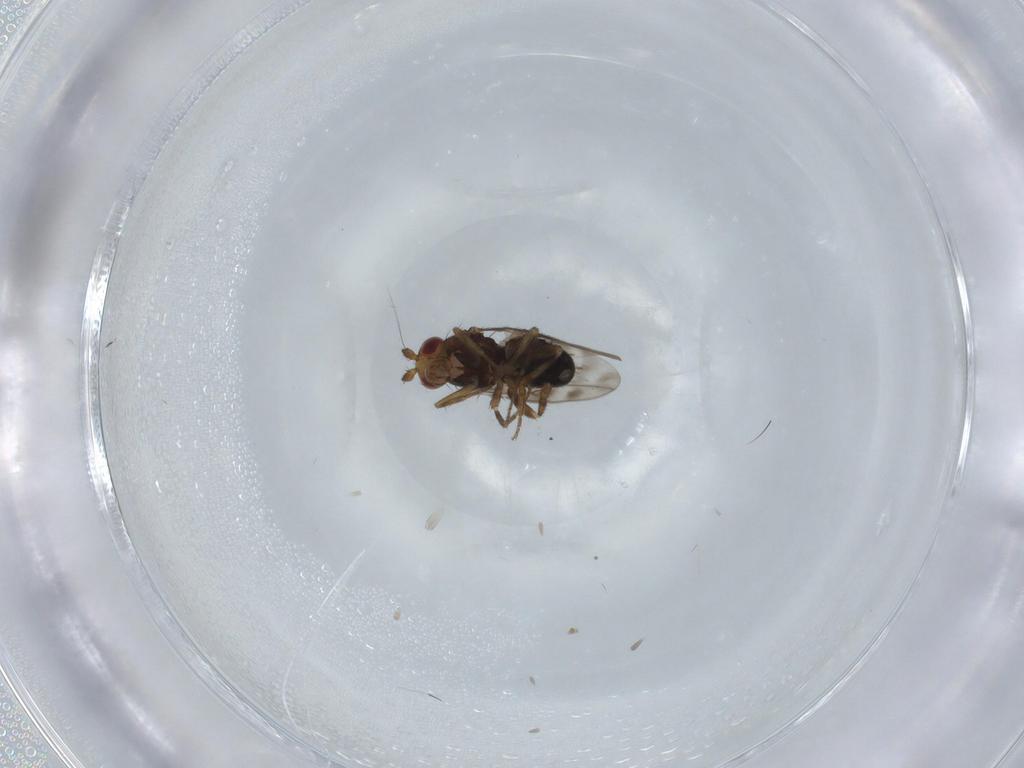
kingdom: Animalia
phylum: Arthropoda
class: Insecta
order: Diptera
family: Sphaeroceridae
